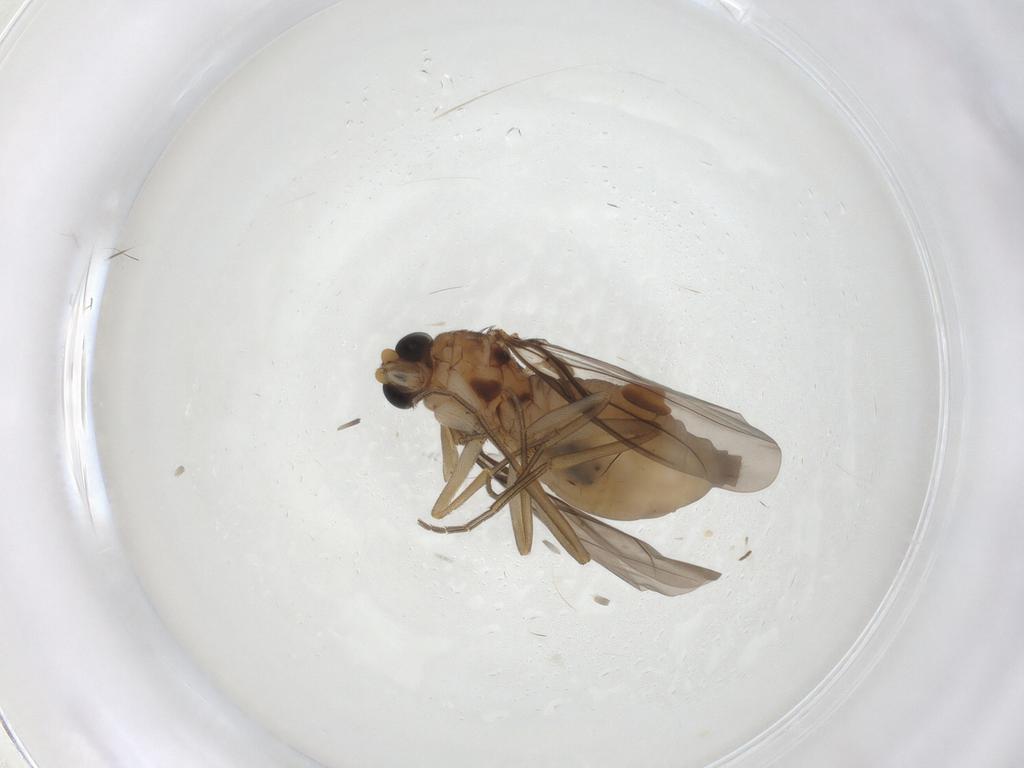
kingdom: Animalia
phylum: Arthropoda
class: Insecta
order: Diptera
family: Syrphidae
